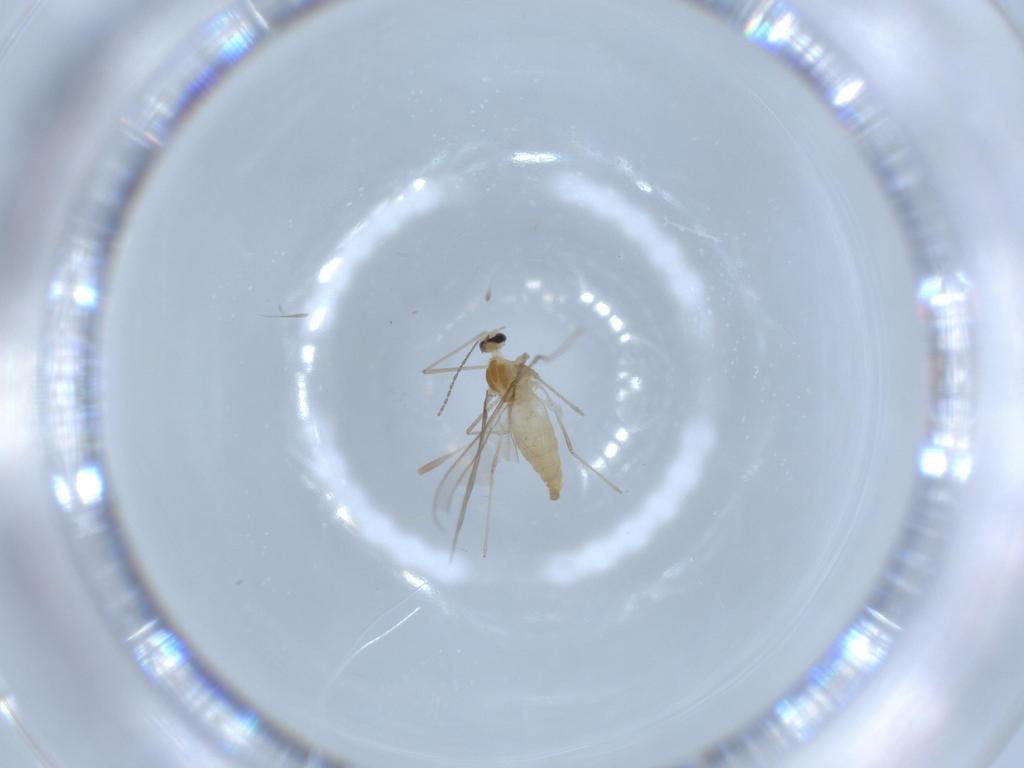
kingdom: Animalia
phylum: Arthropoda
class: Insecta
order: Diptera
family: Cecidomyiidae
